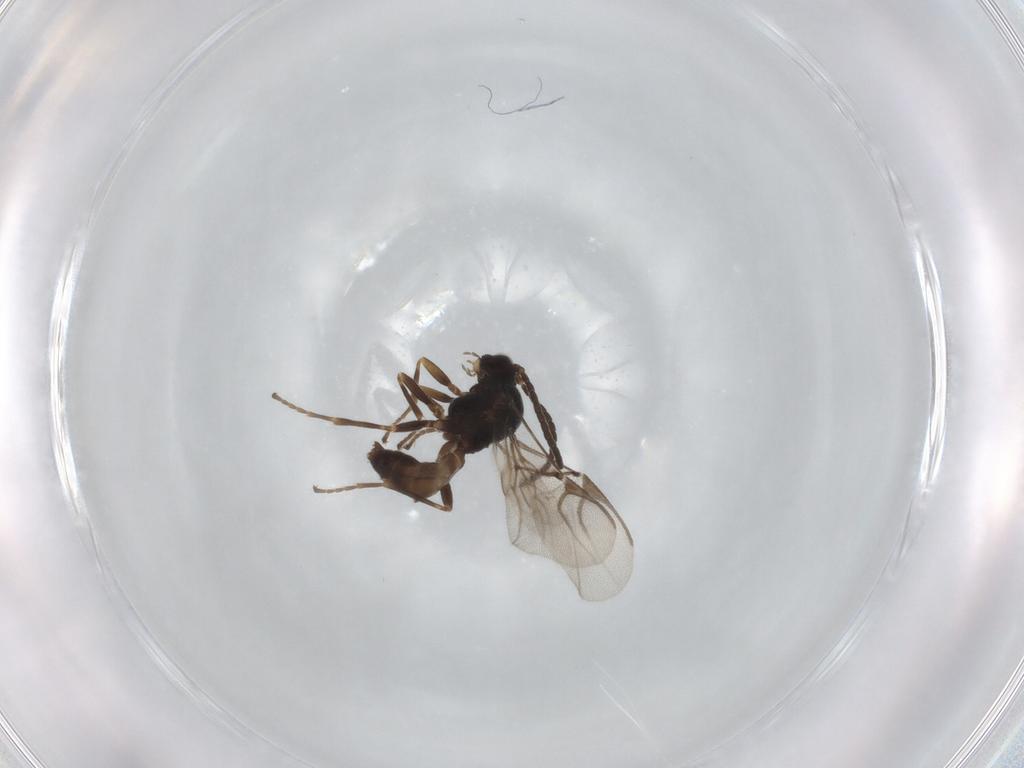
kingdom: Animalia
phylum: Arthropoda
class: Insecta
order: Hymenoptera
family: Braconidae
